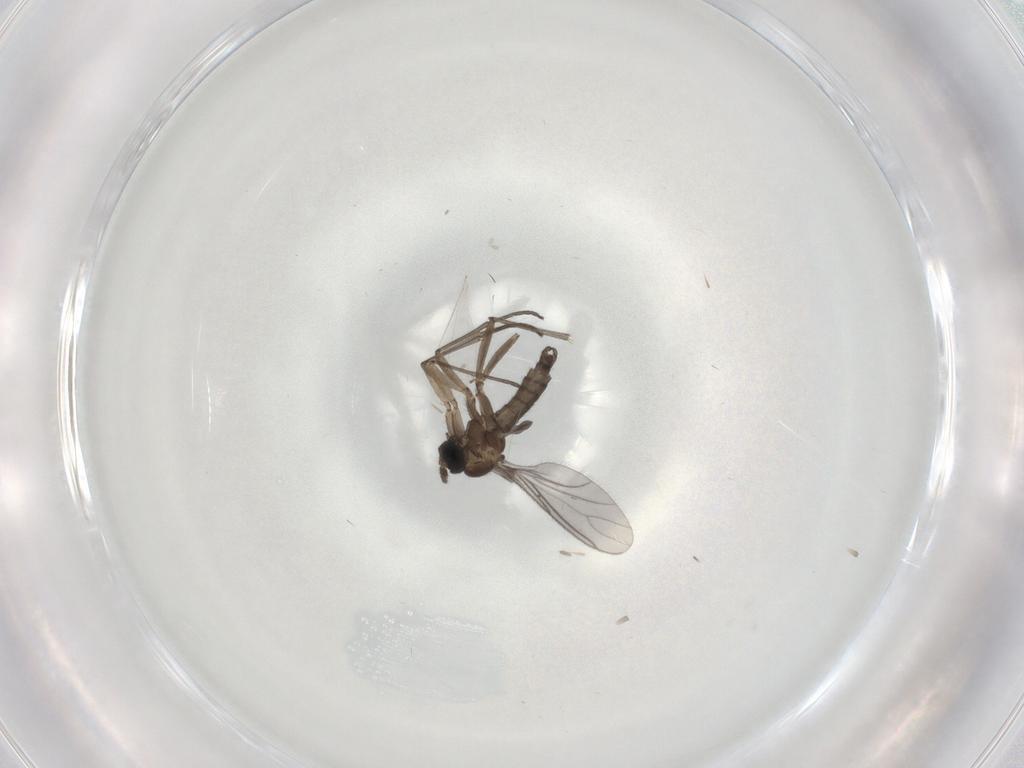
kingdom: Animalia
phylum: Arthropoda
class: Insecta
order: Diptera
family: Sciaridae
